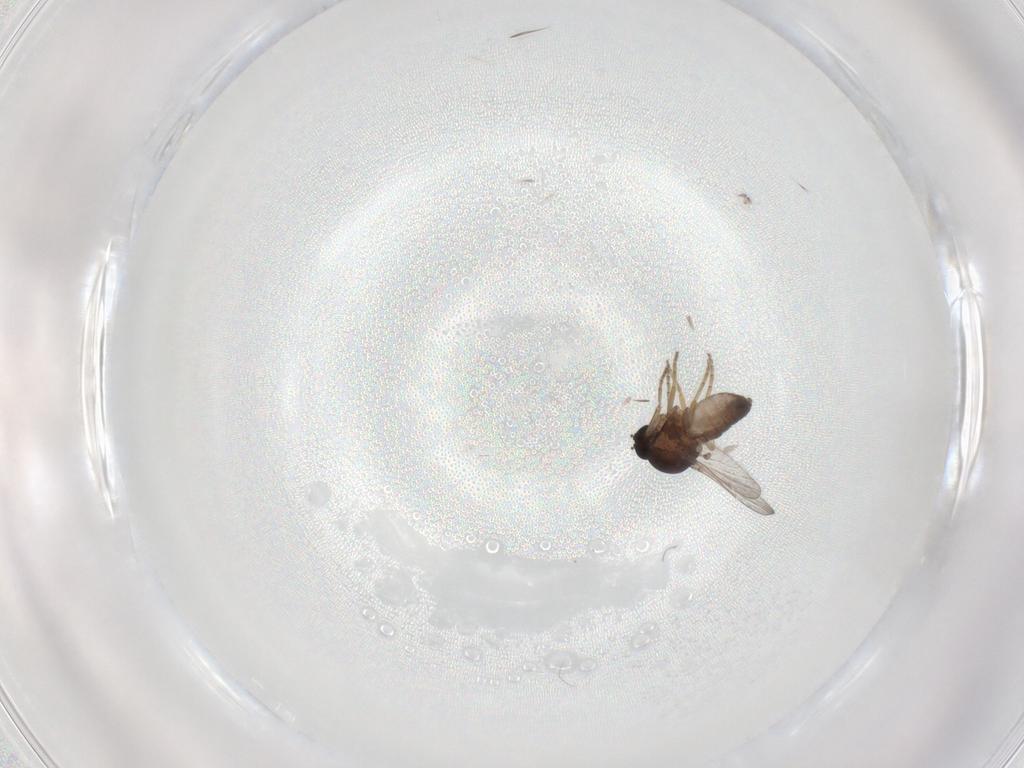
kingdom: Animalia
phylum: Arthropoda
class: Insecta
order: Diptera
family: Ceratopogonidae
